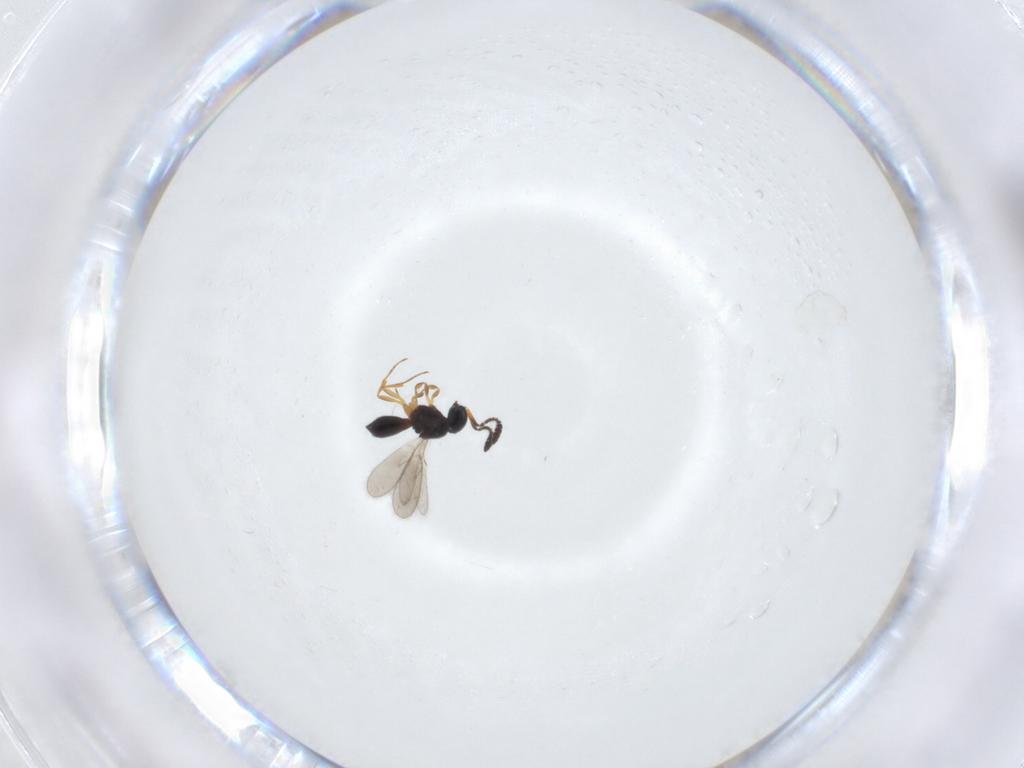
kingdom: Animalia
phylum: Arthropoda
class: Insecta
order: Hymenoptera
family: Scelionidae
